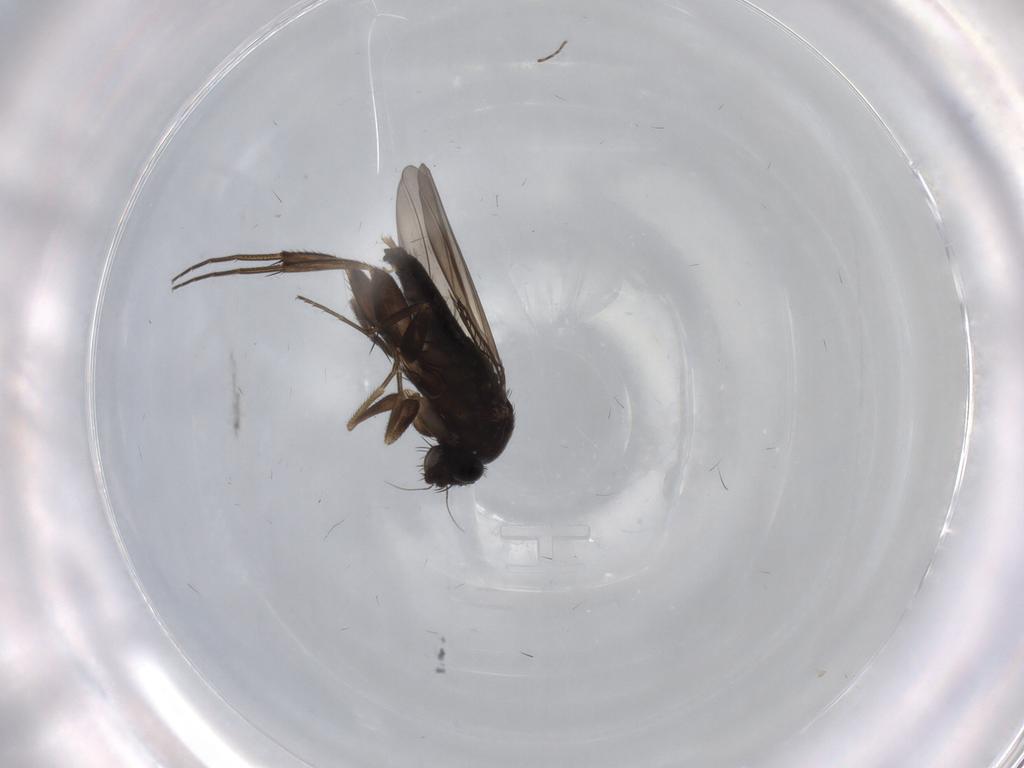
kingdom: Animalia
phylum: Arthropoda
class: Insecta
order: Diptera
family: Phoridae
